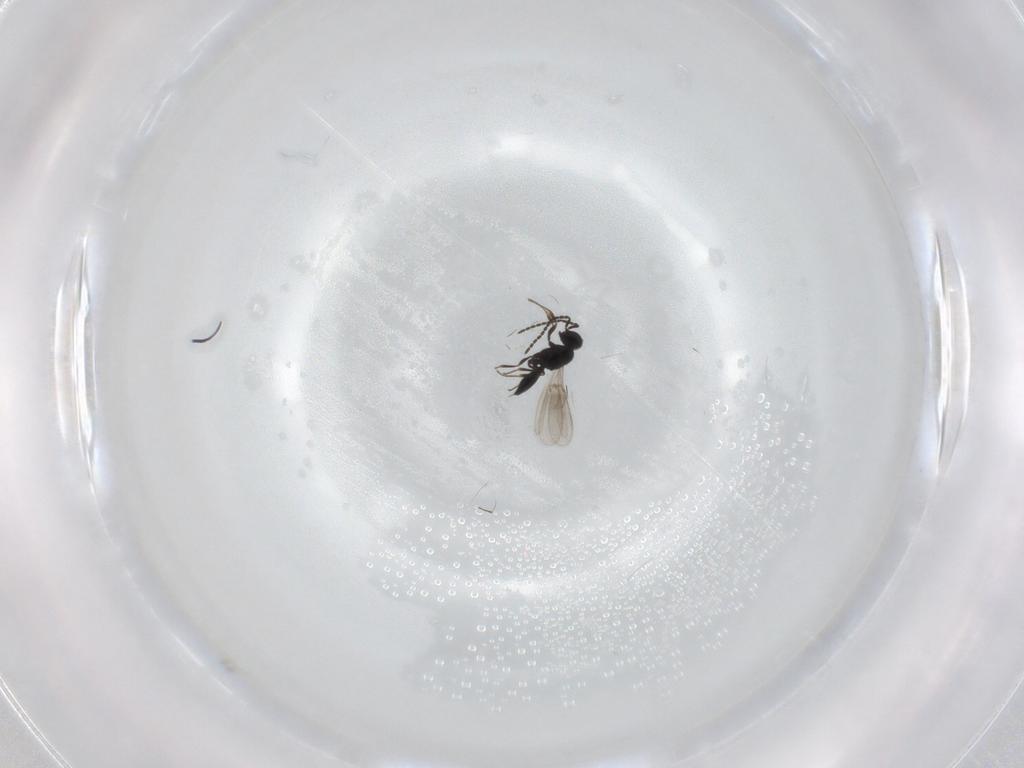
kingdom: Animalia
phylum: Arthropoda
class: Insecta
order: Hymenoptera
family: Scelionidae
